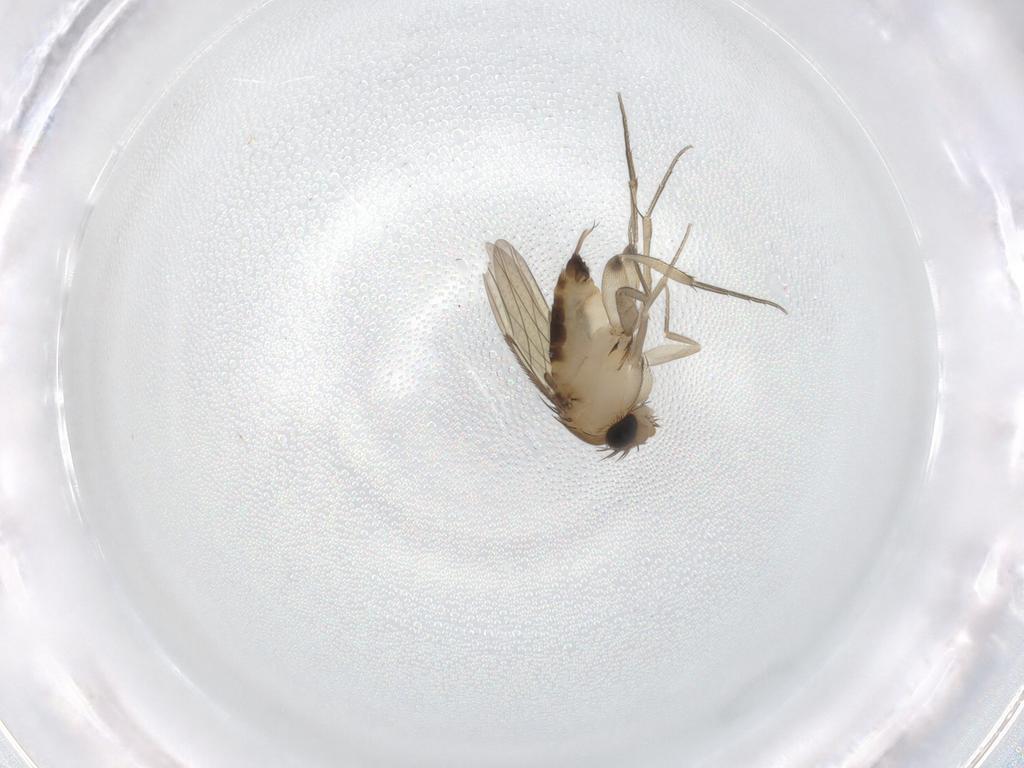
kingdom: Animalia
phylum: Arthropoda
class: Insecta
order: Diptera
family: Phoridae
